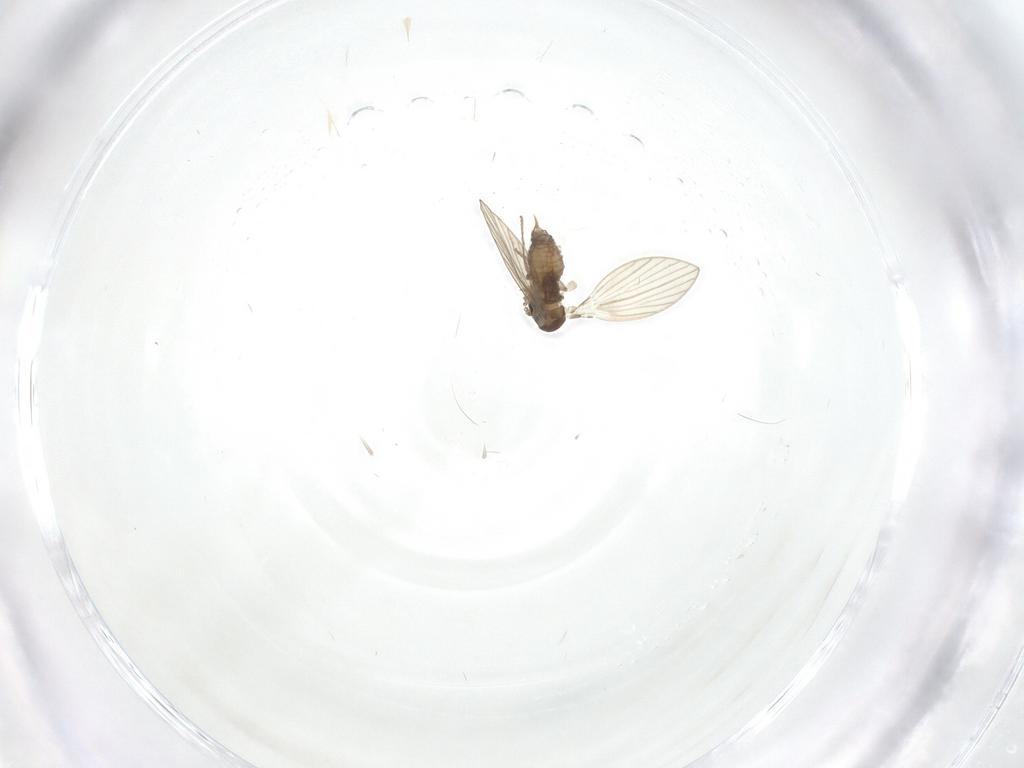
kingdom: Animalia
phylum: Arthropoda
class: Insecta
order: Diptera
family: Psychodidae
